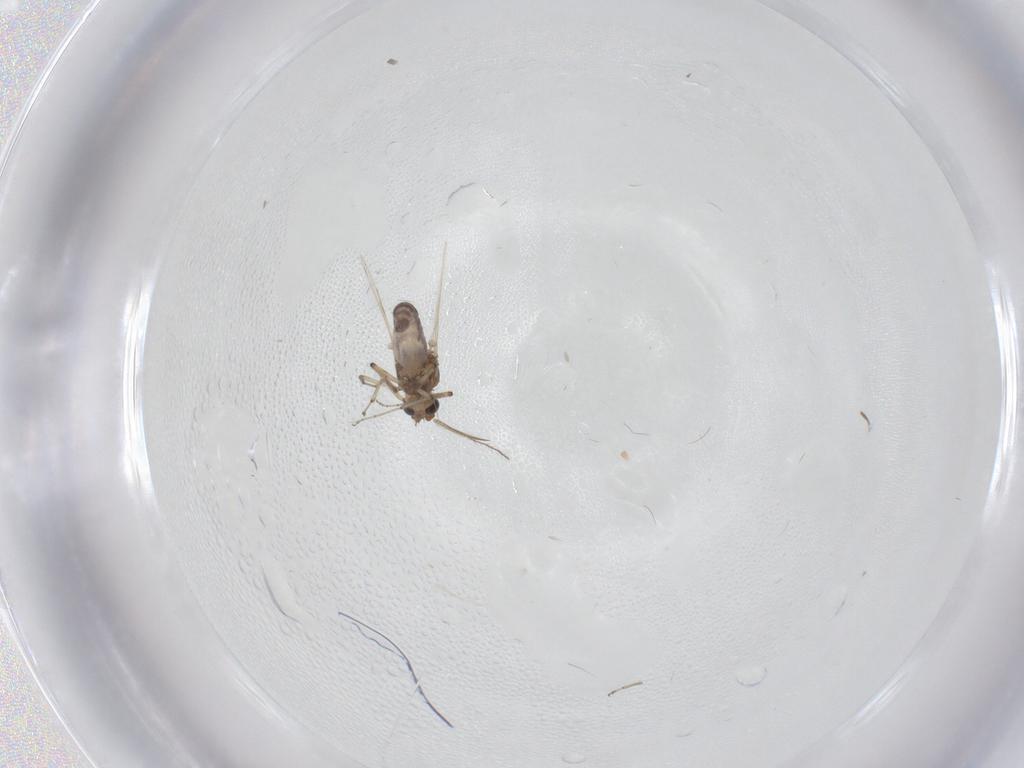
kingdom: Animalia
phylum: Arthropoda
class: Insecta
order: Diptera
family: Ceratopogonidae
